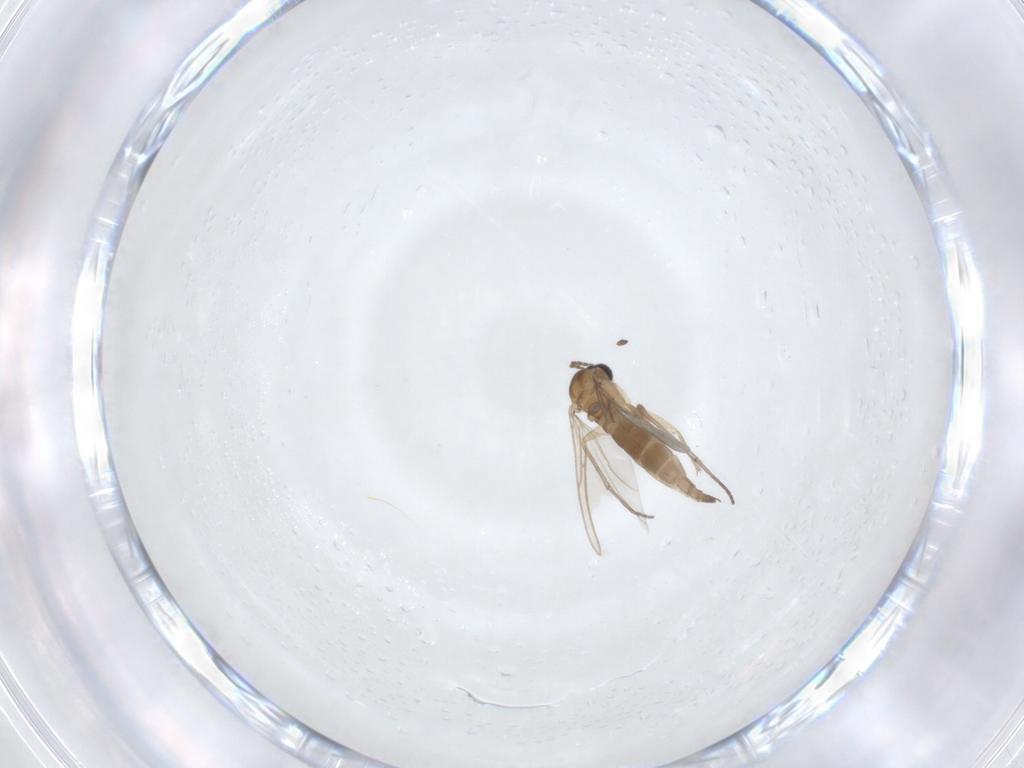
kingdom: Animalia
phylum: Arthropoda
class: Insecta
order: Diptera
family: Sciaridae
